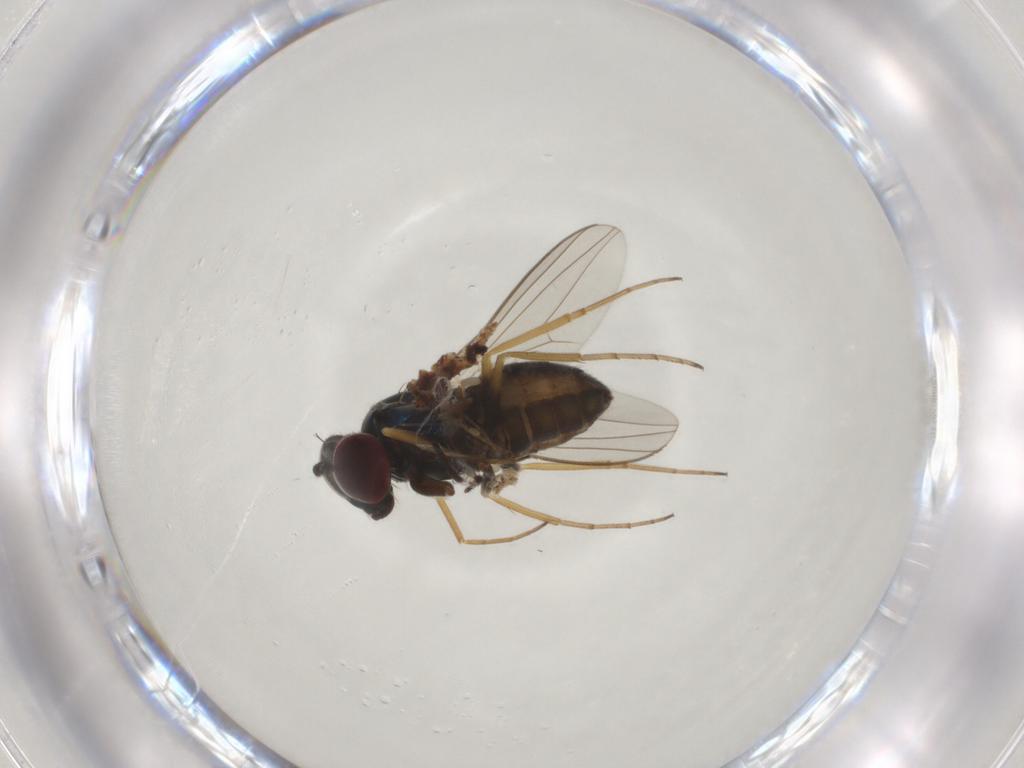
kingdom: Animalia
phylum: Arthropoda
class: Insecta
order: Diptera
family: Dolichopodidae
